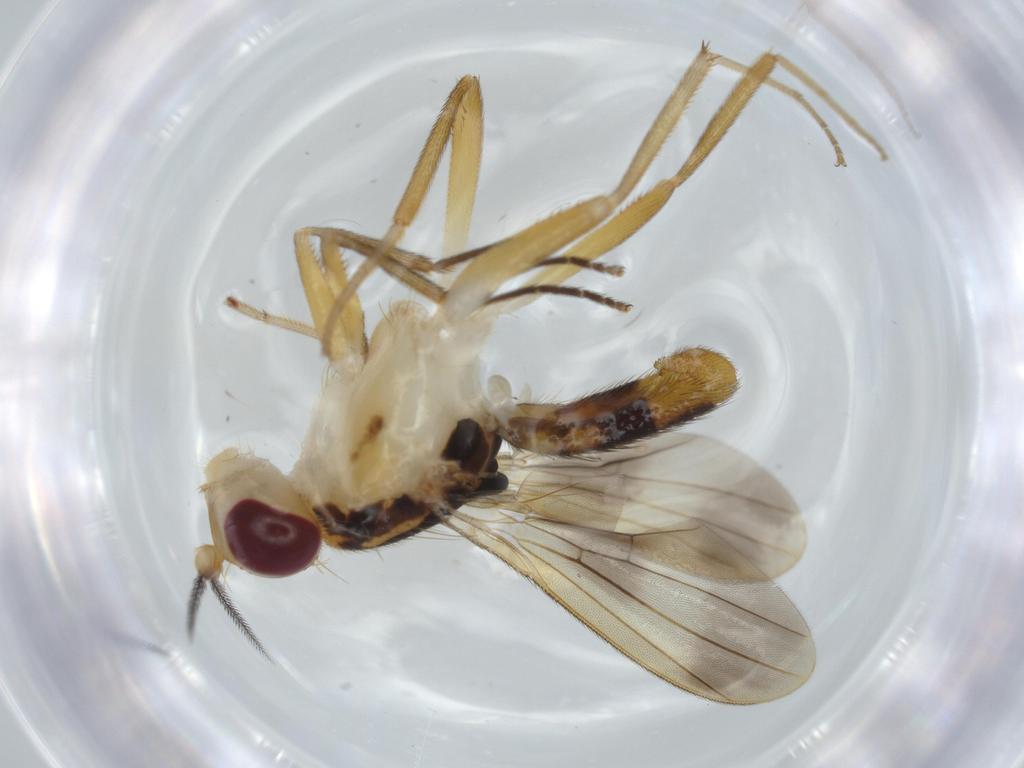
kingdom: Animalia
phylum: Arthropoda
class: Insecta
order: Diptera
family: Clusiidae
